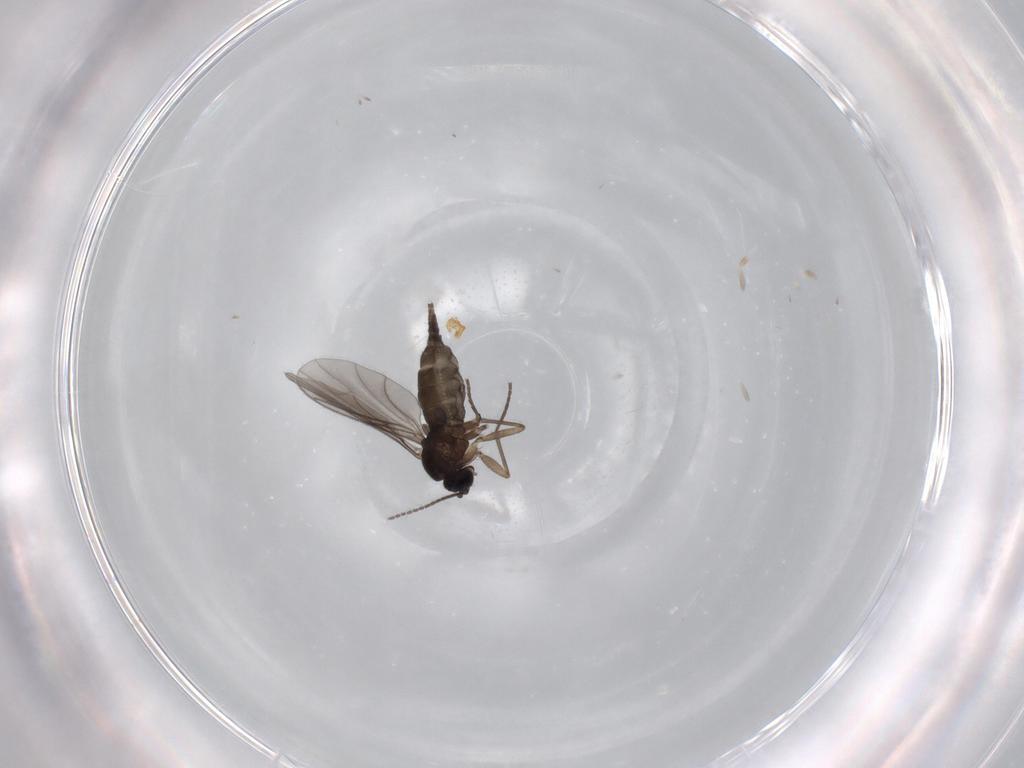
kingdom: Animalia
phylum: Arthropoda
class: Insecta
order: Diptera
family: Sciaridae
